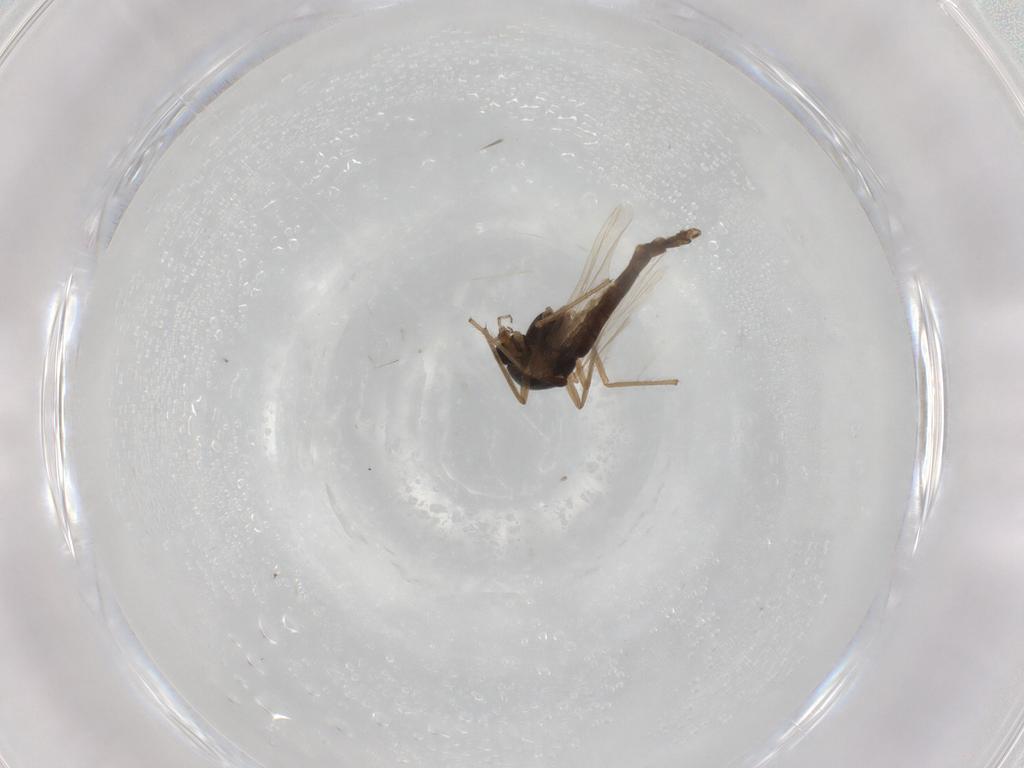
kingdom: Animalia
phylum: Arthropoda
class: Insecta
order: Diptera
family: Chironomidae
